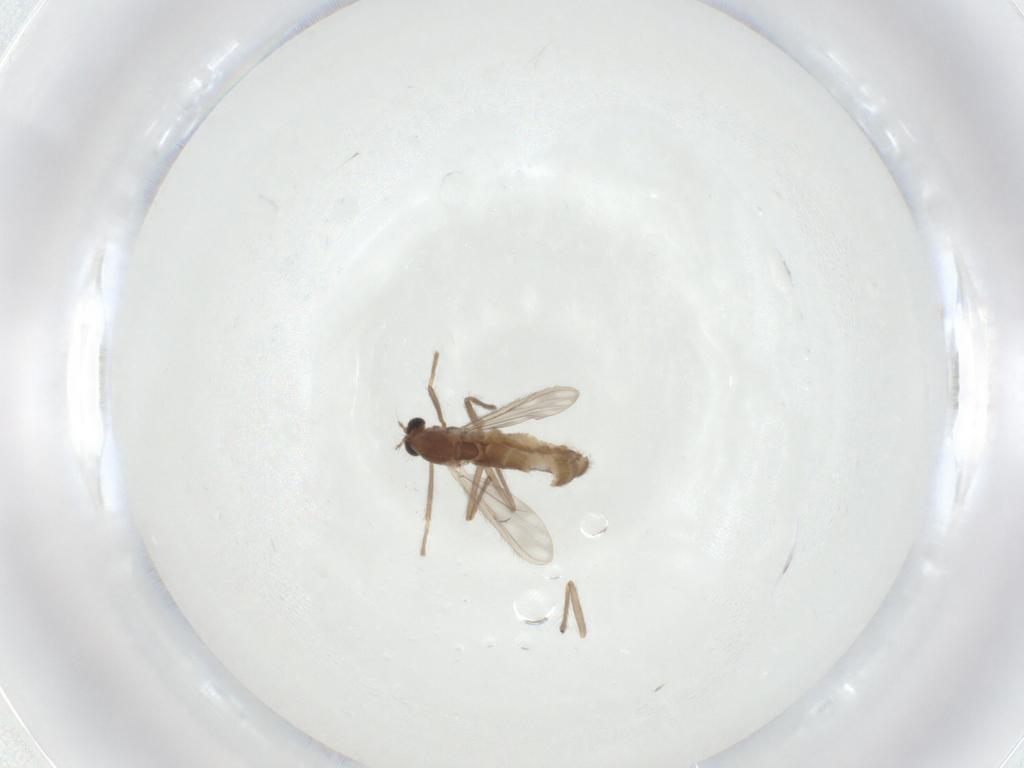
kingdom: Animalia
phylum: Arthropoda
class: Insecta
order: Diptera
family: Chironomidae
